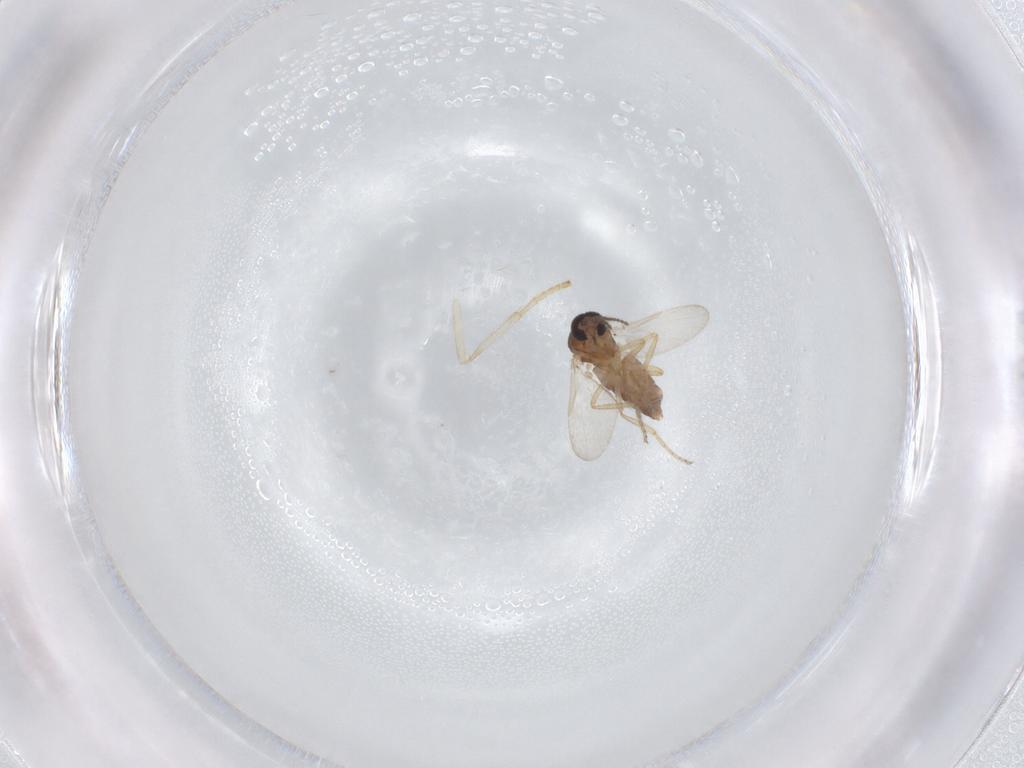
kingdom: Animalia
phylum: Arthropoda
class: Insecta
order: Diptera
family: Ceratopogonidae
